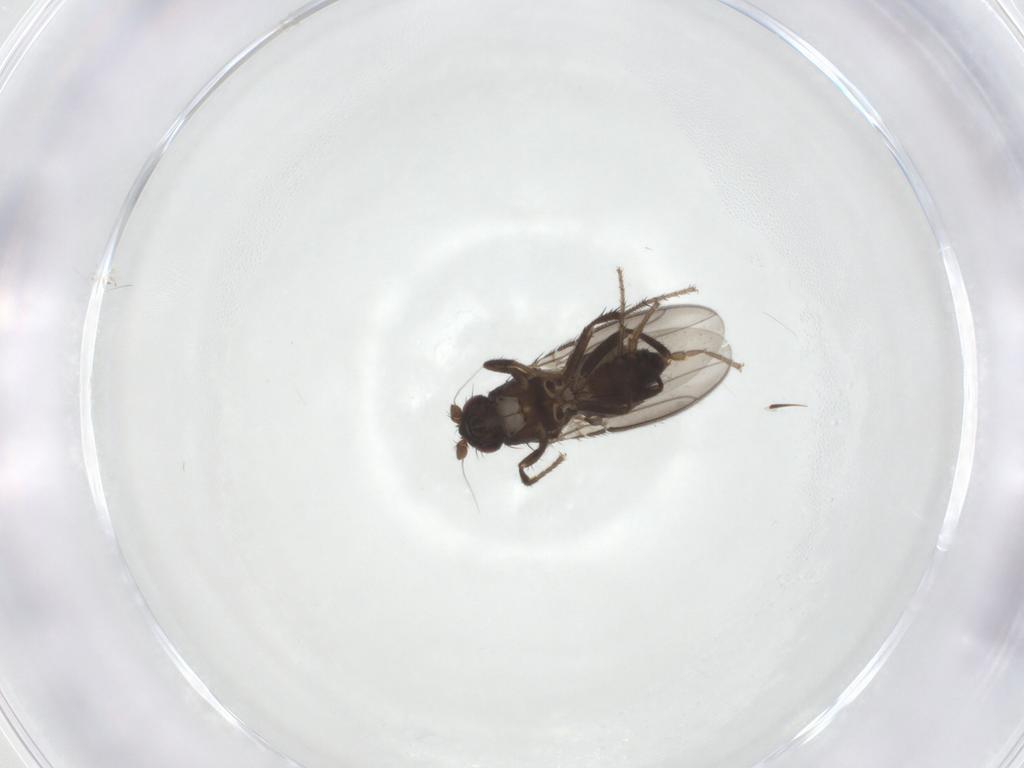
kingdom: Animalia
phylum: Arthropoda
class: Insecta
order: Diptera
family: Sphaeroceridae
